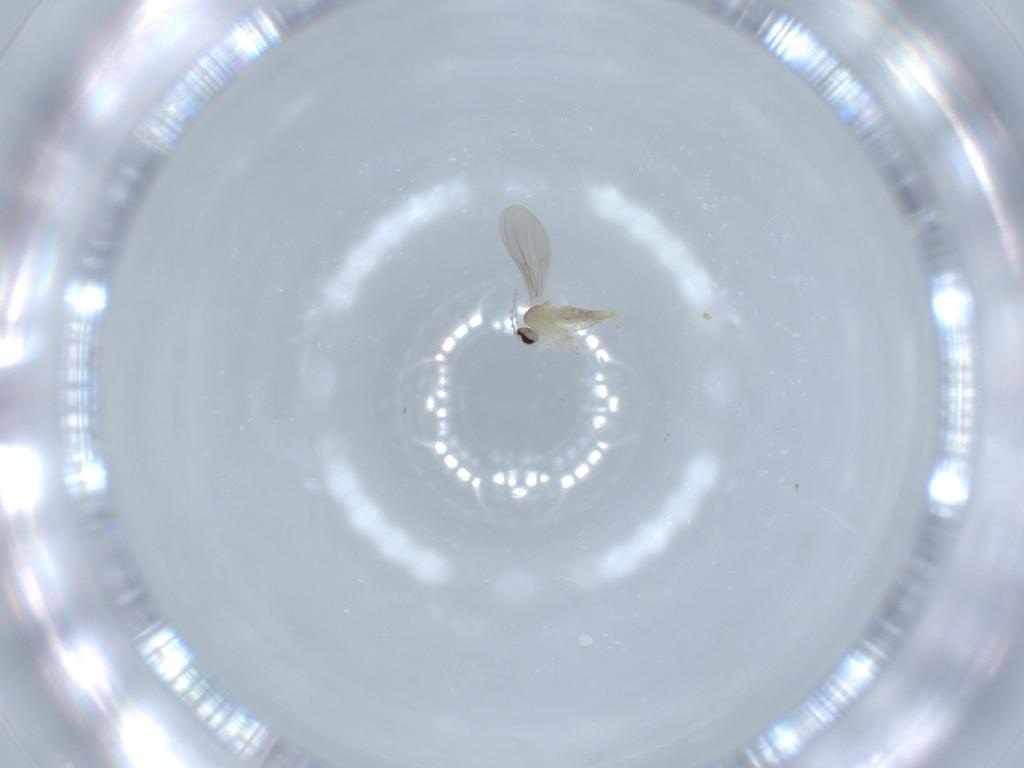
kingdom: Animalia
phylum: Arthropoda
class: Insecta
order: Diptera
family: Cecidomyiidae
